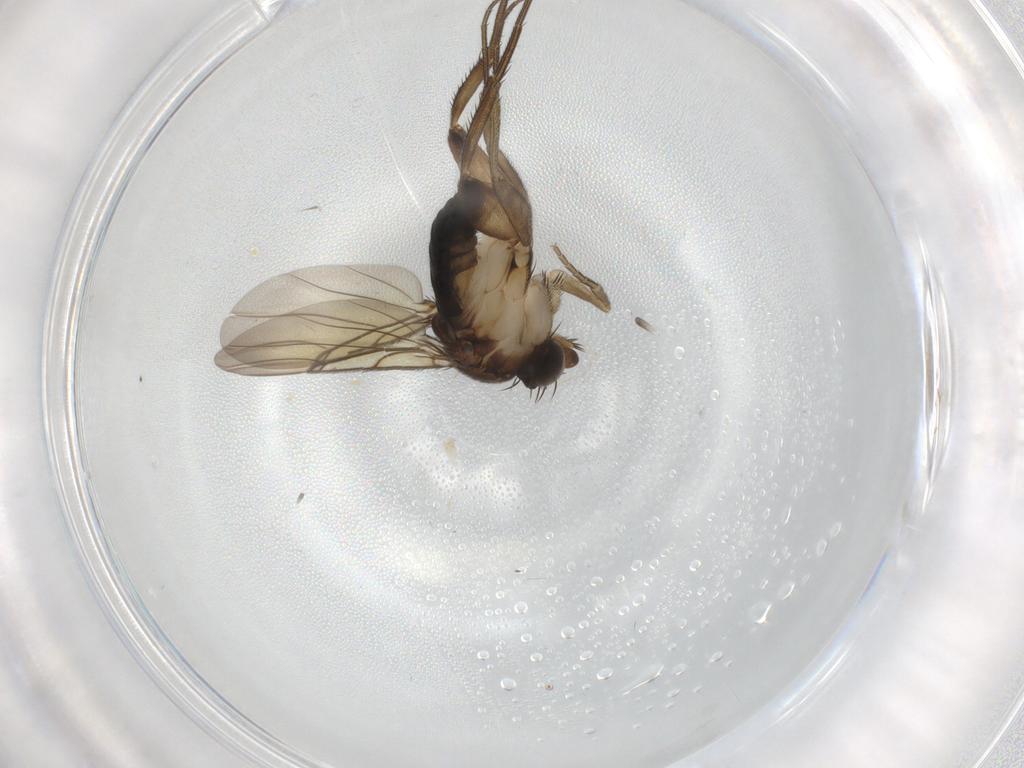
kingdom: Animalia
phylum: Arthropoda
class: Insecta
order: Diptera
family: Phoridae
